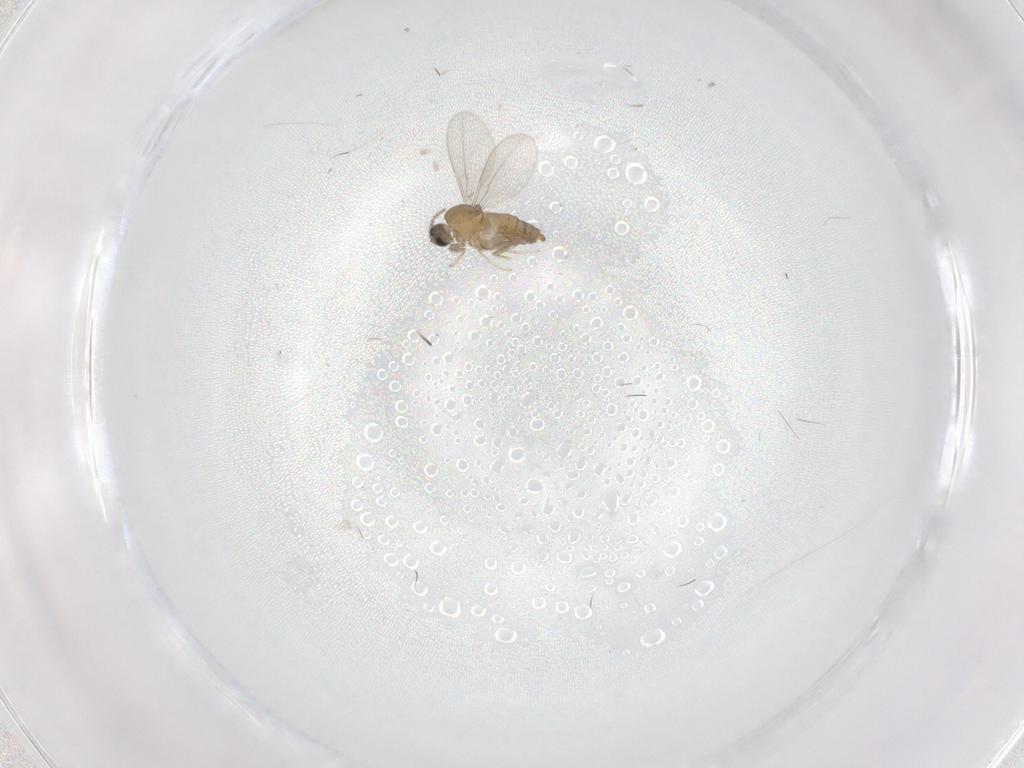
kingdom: Animalia
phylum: Arthropoda
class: Insecta
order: Diptera
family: Cecidomyiidae
